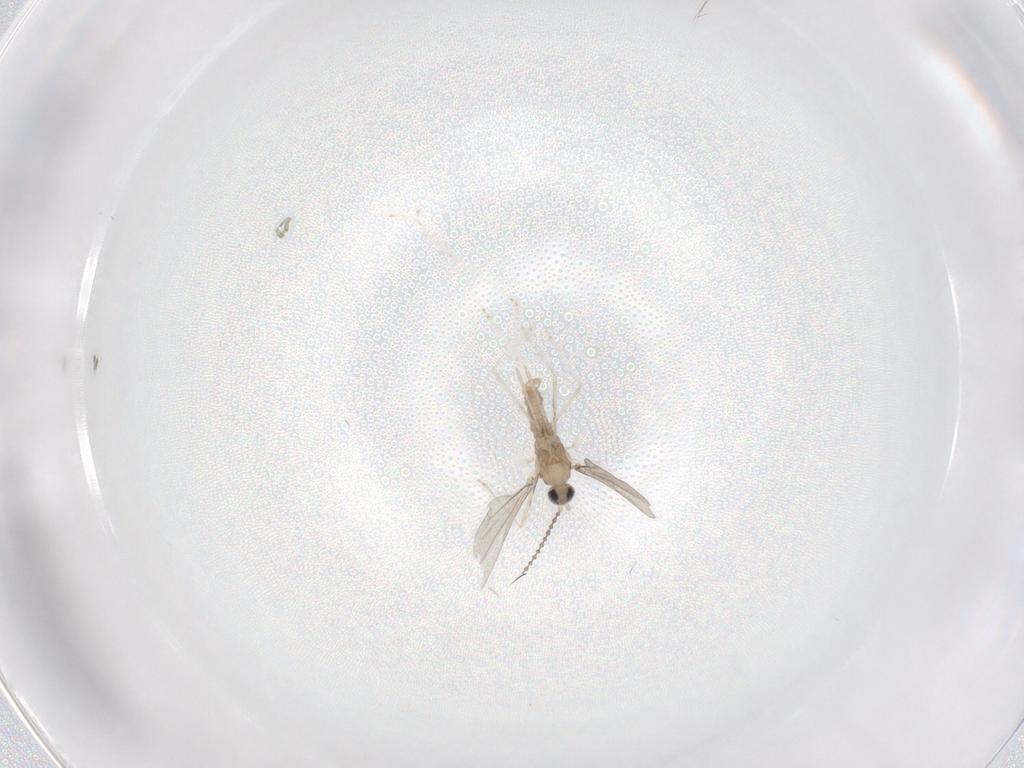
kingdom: Animalia
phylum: Arthropoda
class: Insecta
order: Diptera
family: Cecidomyiidae
